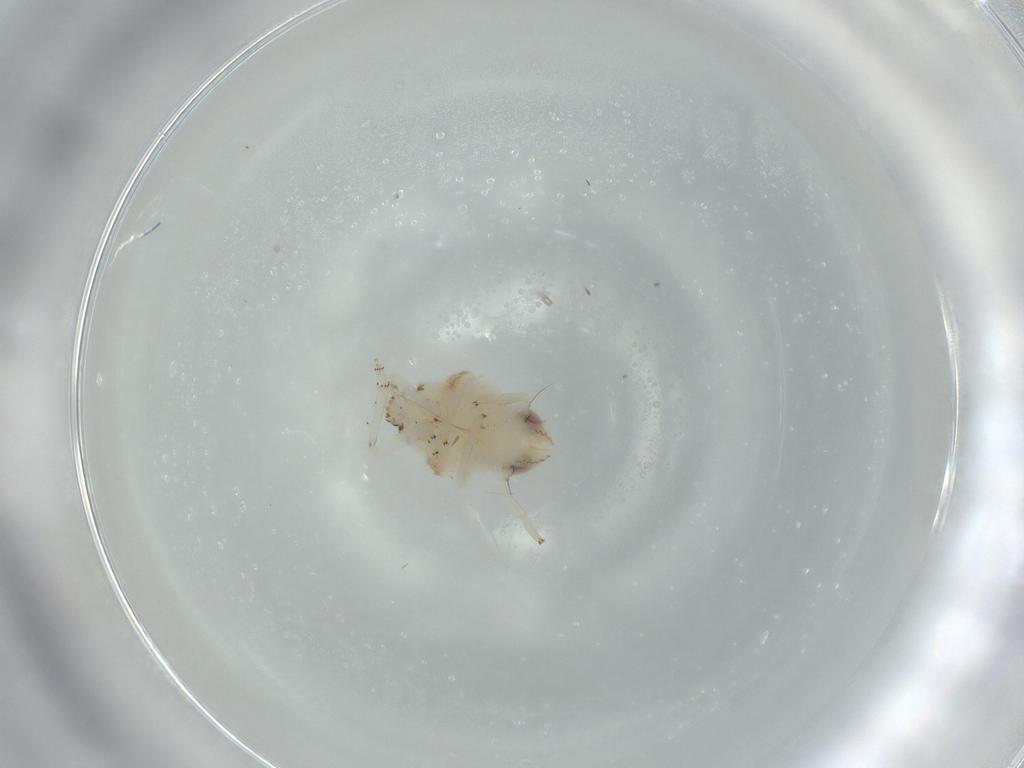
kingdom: Animalia
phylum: Arthropoda
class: Insecta
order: Hemiptera
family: Nogodinidae
